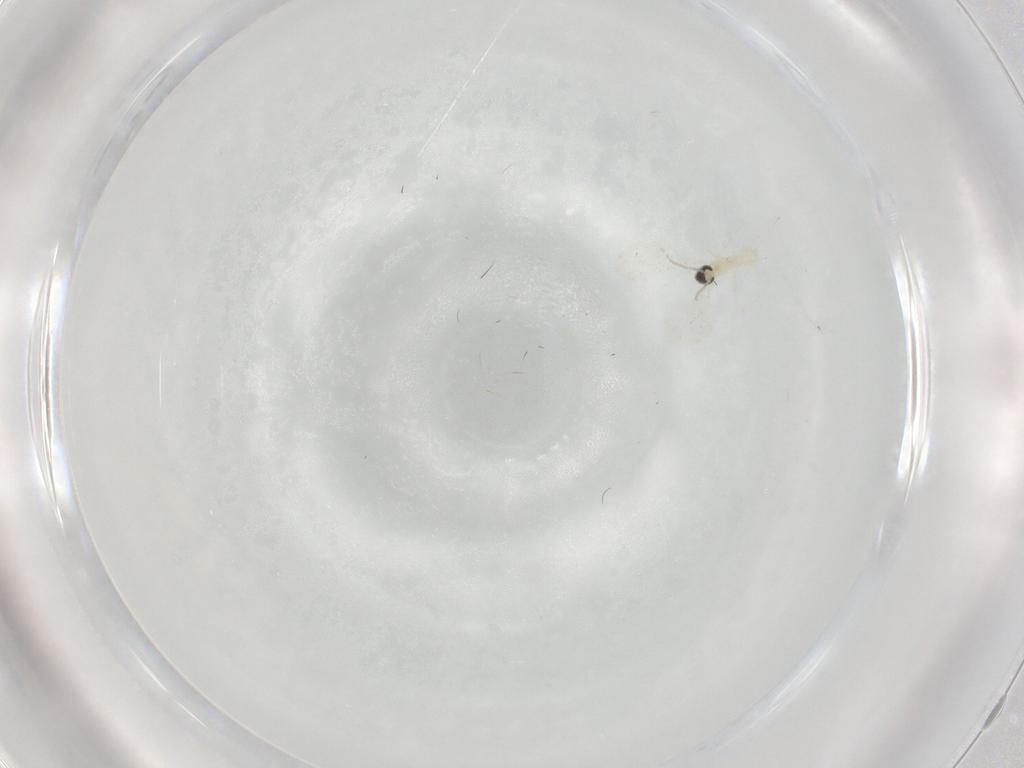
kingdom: Animalia
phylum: Arthropoda
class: Insecta
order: Diptera
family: Cecidomyiidae
